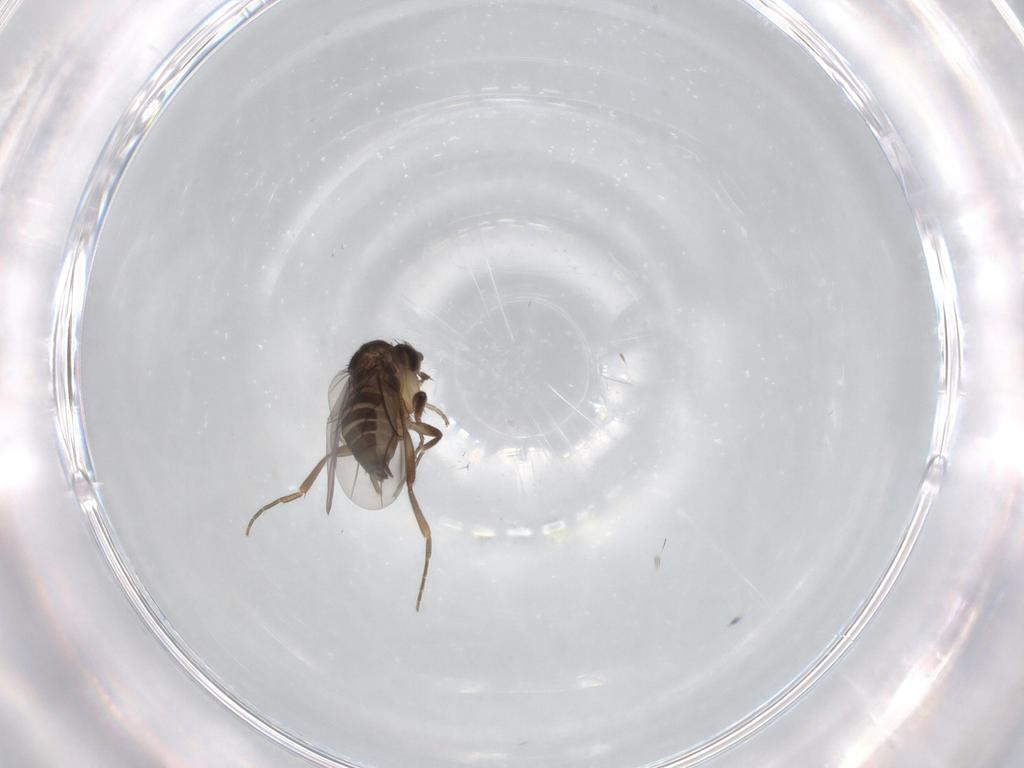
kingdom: Animalia
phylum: Arthropoda
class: Insecta
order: Diptera
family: Phoridae
